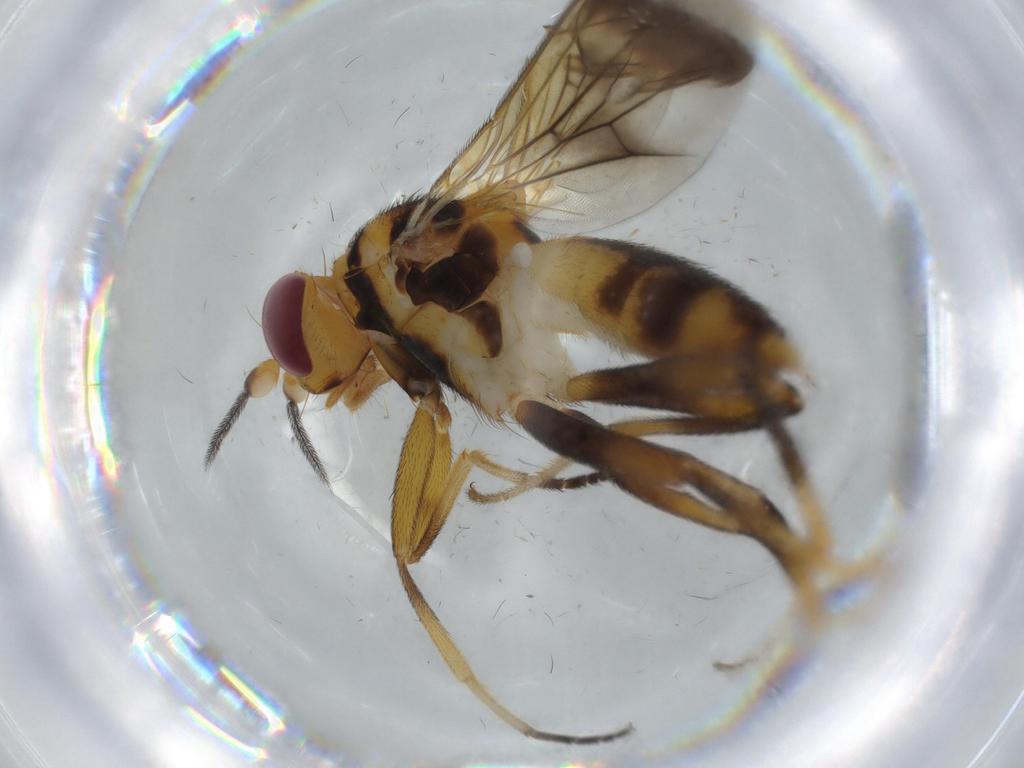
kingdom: Animalia
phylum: Arthropoda
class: Insecta
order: Diptera
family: Clusiidae
